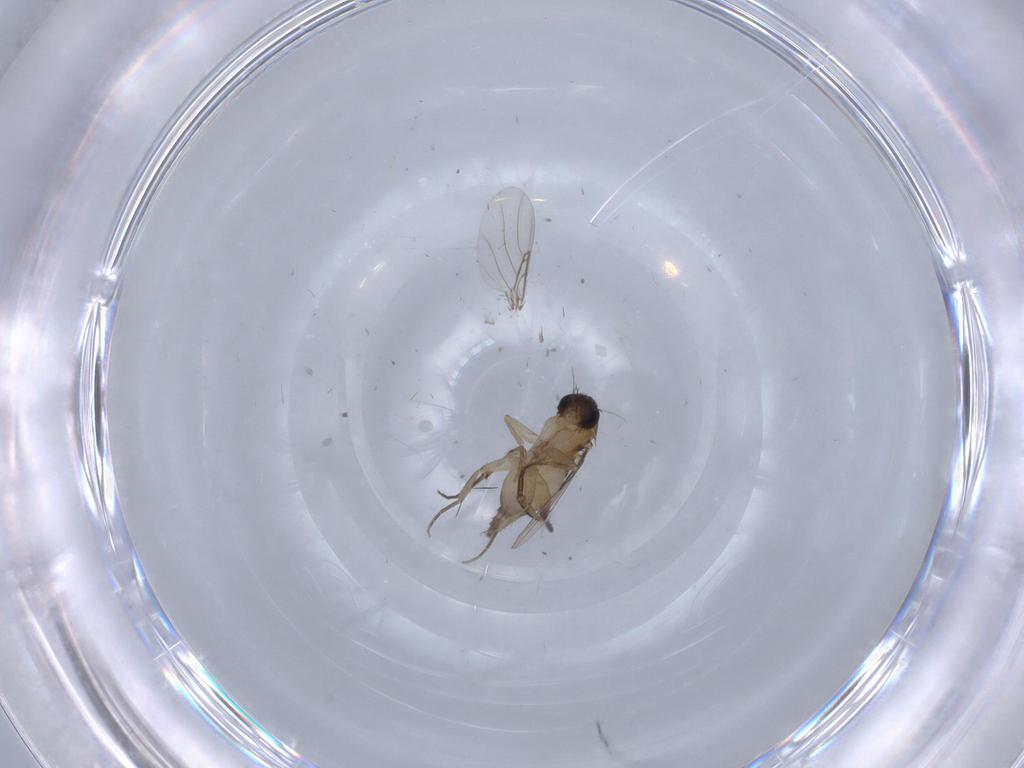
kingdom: Animalia
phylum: Arthropoda
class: Insecta
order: Diptera
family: Phoridae
